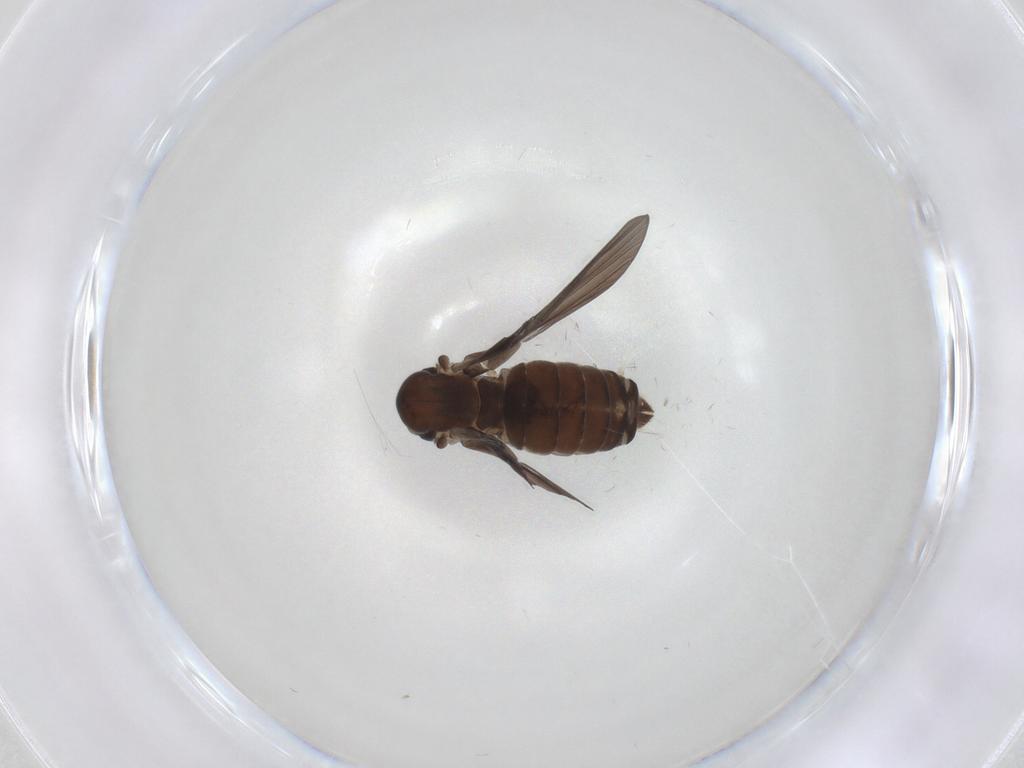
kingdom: Animalia
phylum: Arthropoda
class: Insecta
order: Diptera
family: Psychodidae
